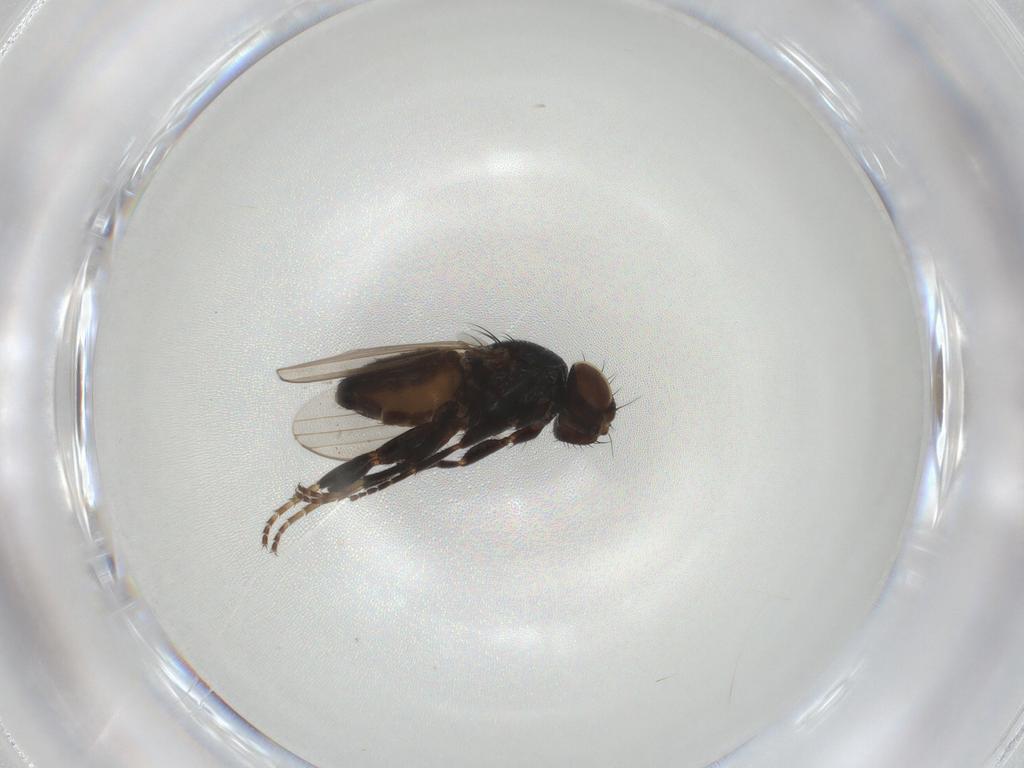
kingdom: Animalia
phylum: Arthropoda
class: Insecta
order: Diptera
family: Chloropidae
